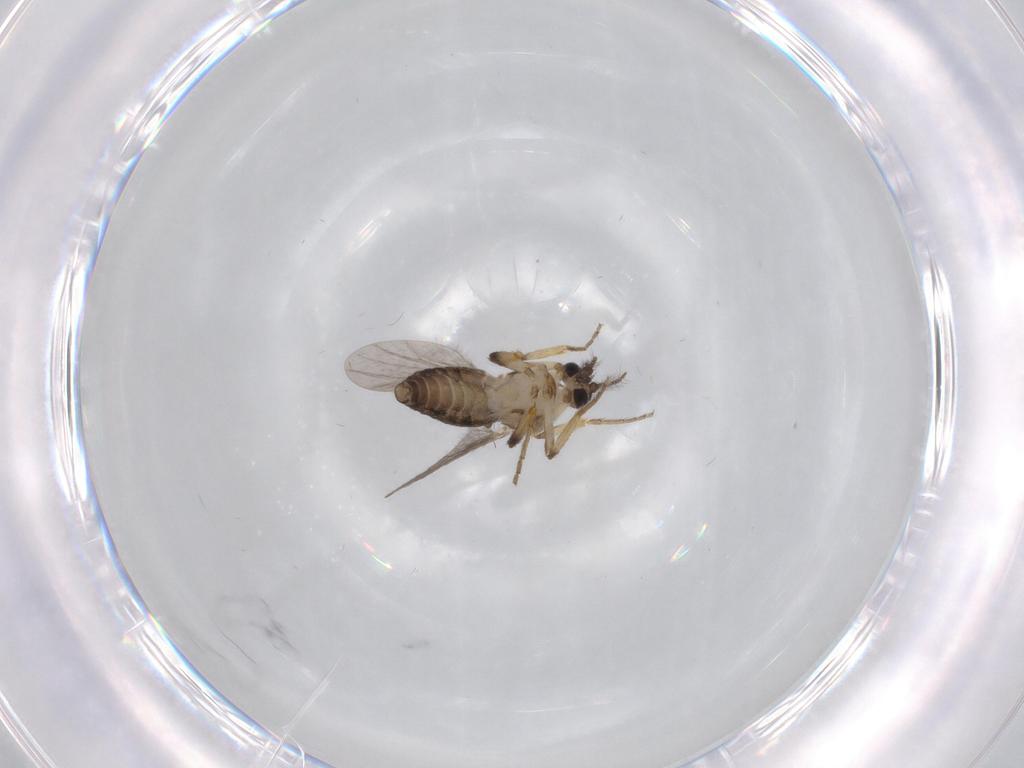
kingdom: Animalia
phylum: Arthropoda
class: Insecta
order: Diptera
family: Ceratopogonidae
